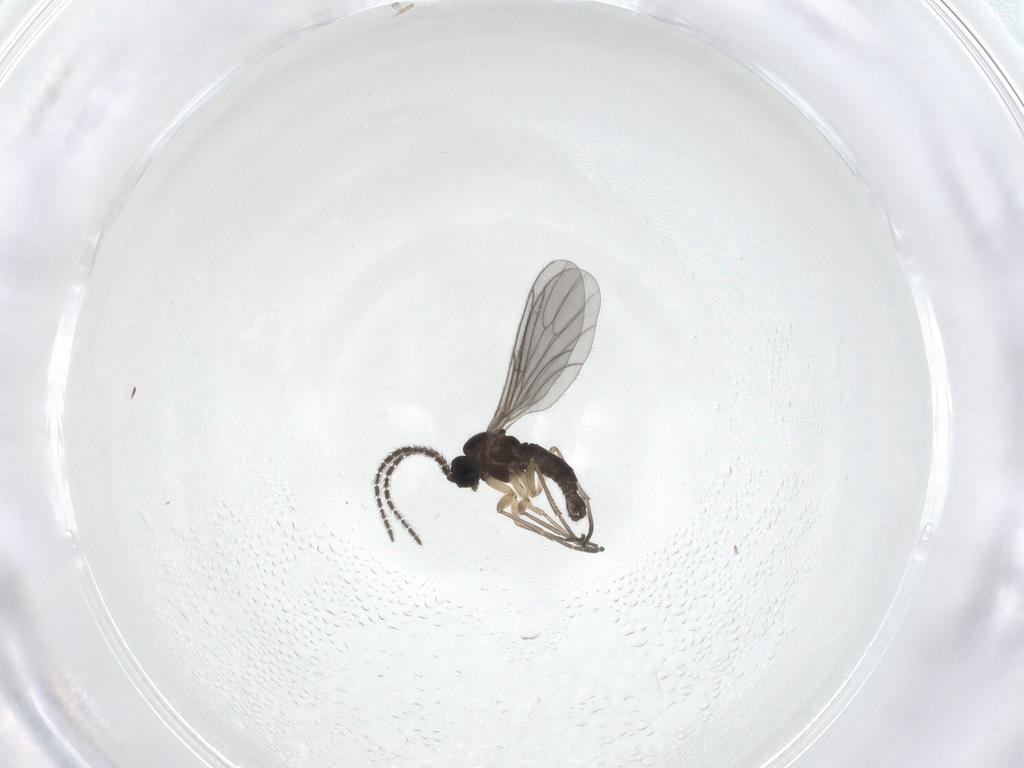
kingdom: Animalia
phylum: Arthropoda
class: Insecta
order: Diptera
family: Sciaridae
